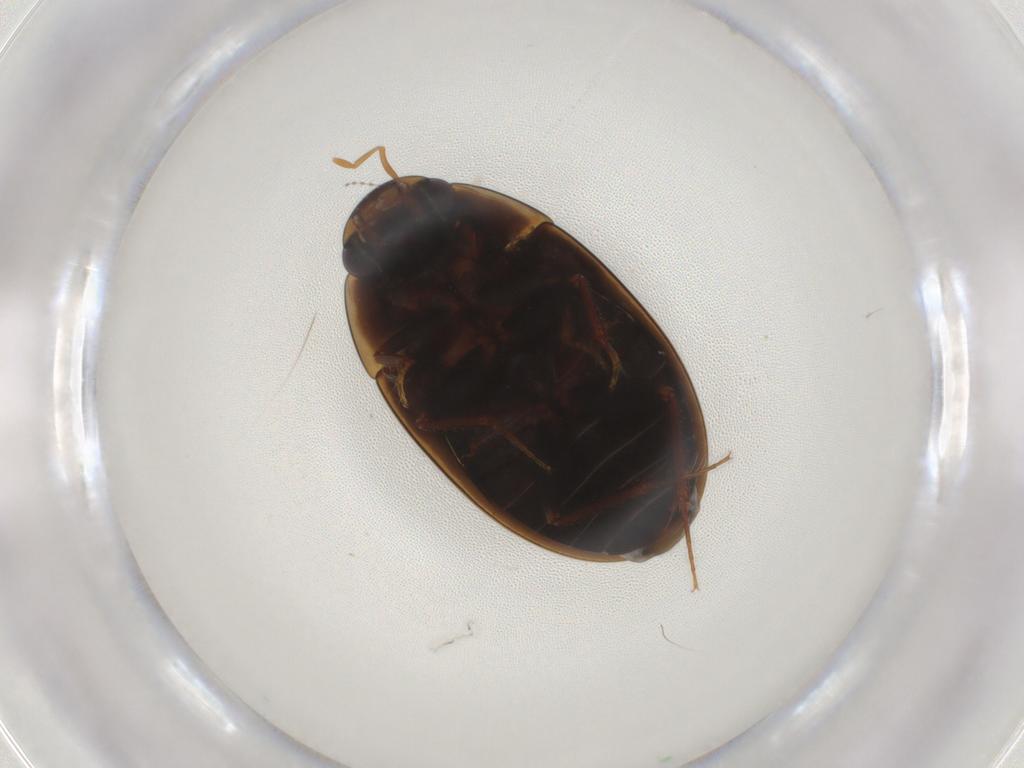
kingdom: Animalia
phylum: Arthropoda
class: Insecta
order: Coleoptera
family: Hydrophilidae
